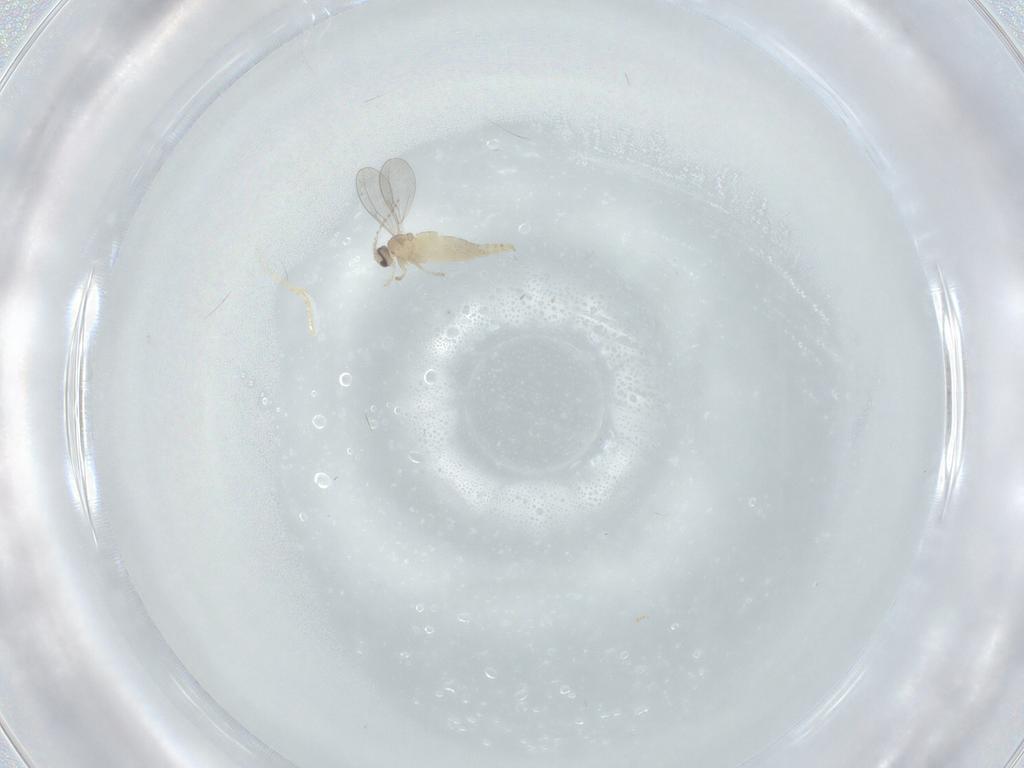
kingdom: Animalia
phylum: Arthropoda
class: Insecta
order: Diptera
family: Cecidomyiidae
